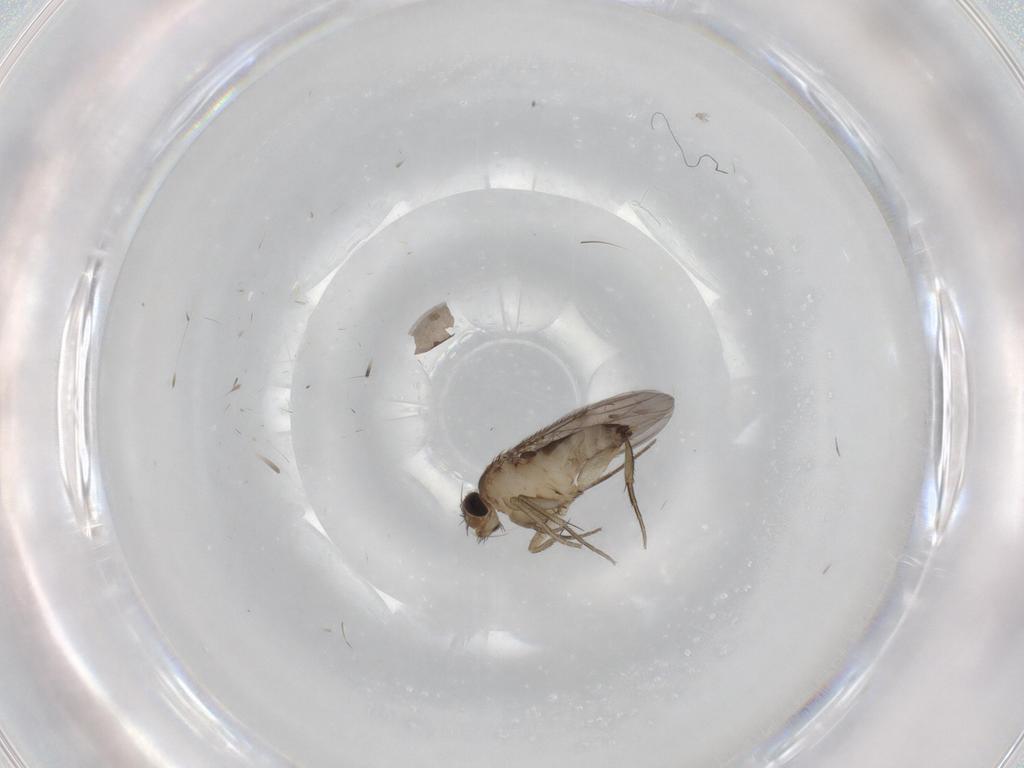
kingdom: Animalia
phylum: Arthropoda
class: Insecta
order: Diptera
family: Phoridae
